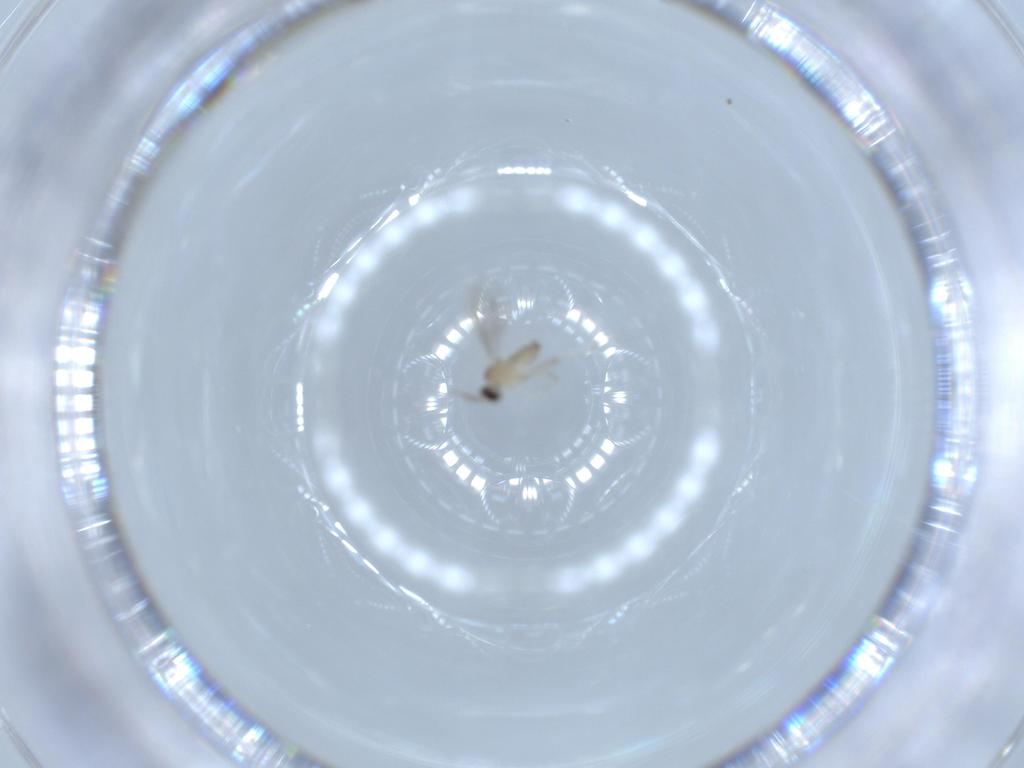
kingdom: Animalia
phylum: Arthropoda
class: Insecta
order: Diptera
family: Cecidomyiidae
